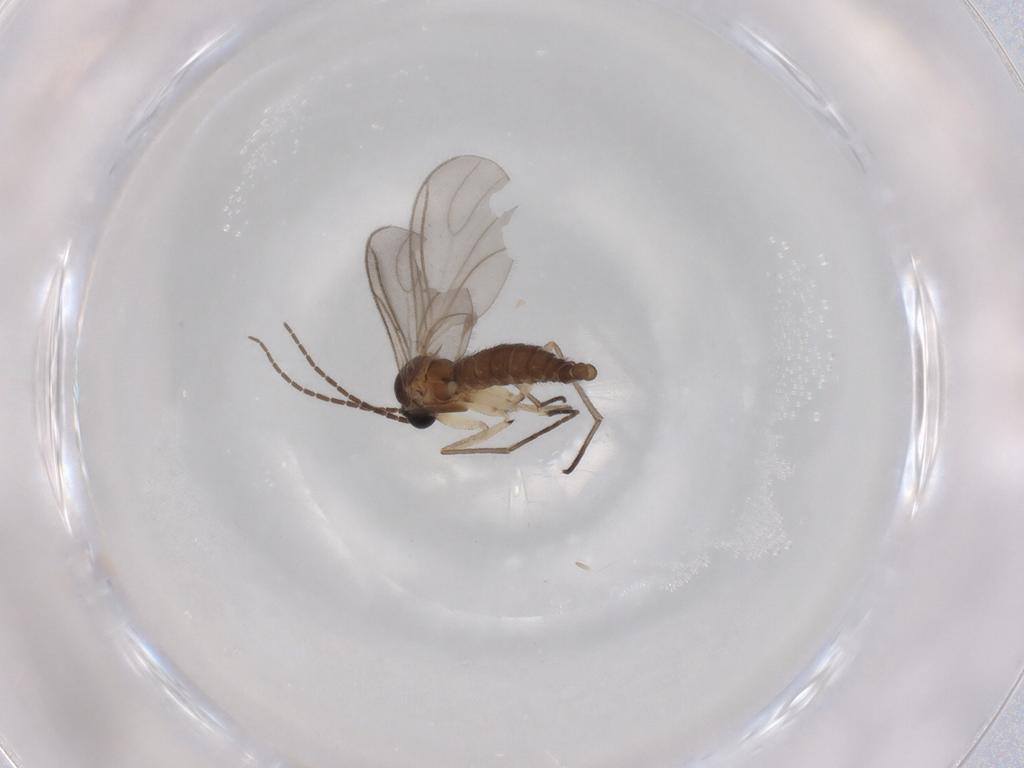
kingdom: Animalia
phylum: Arthropoda
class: Insecta
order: Diptera
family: Sciaridae
